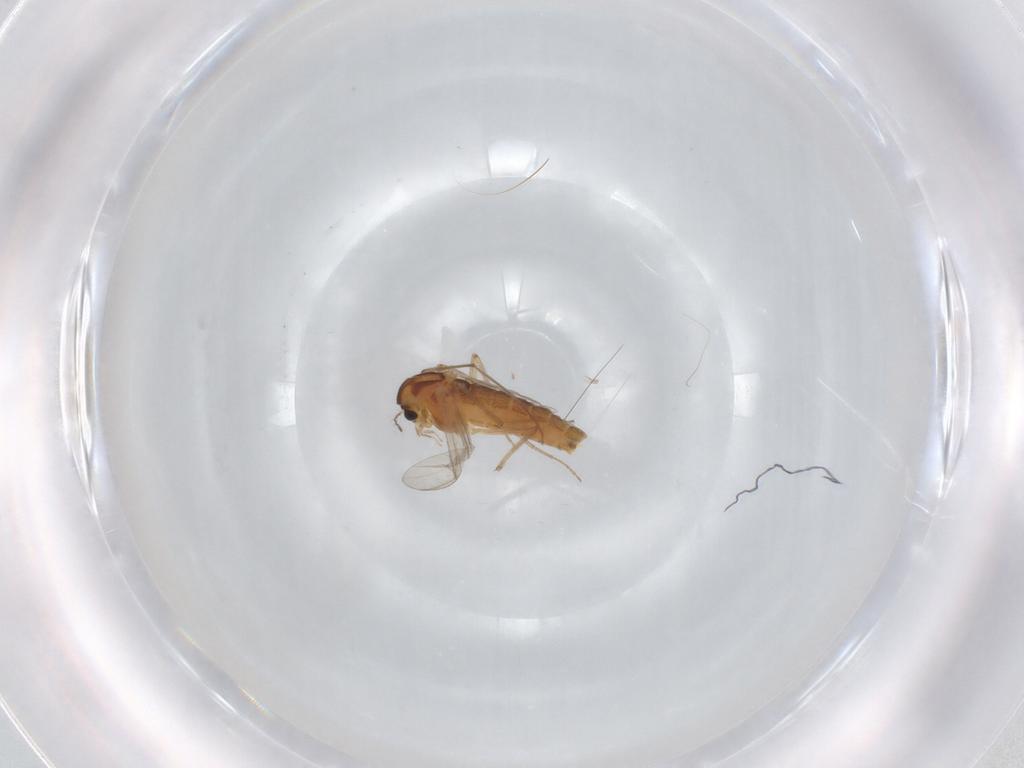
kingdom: Animalia
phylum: Arthropoda
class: Insecta
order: Diptera
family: Chironomidae
